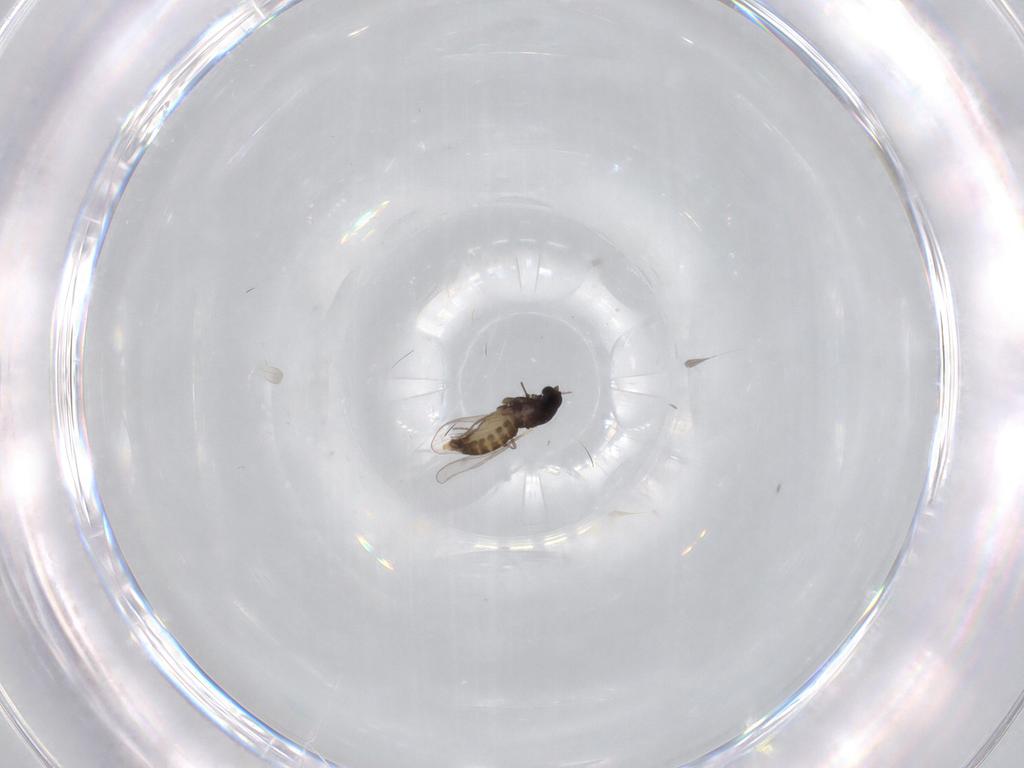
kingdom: Animalia
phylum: Arthropoda
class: Insecta
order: Diptera
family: Chironomidae
